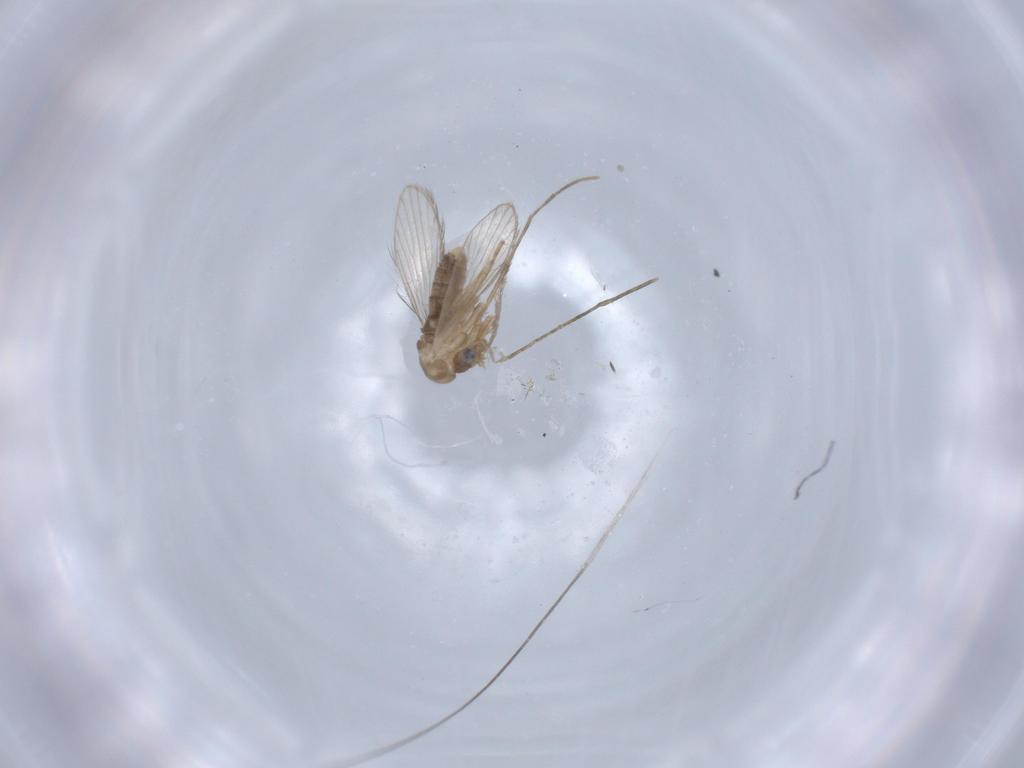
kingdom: Animalia
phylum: Arthropoda
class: Insecta
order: Diptera
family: Psychodidae
